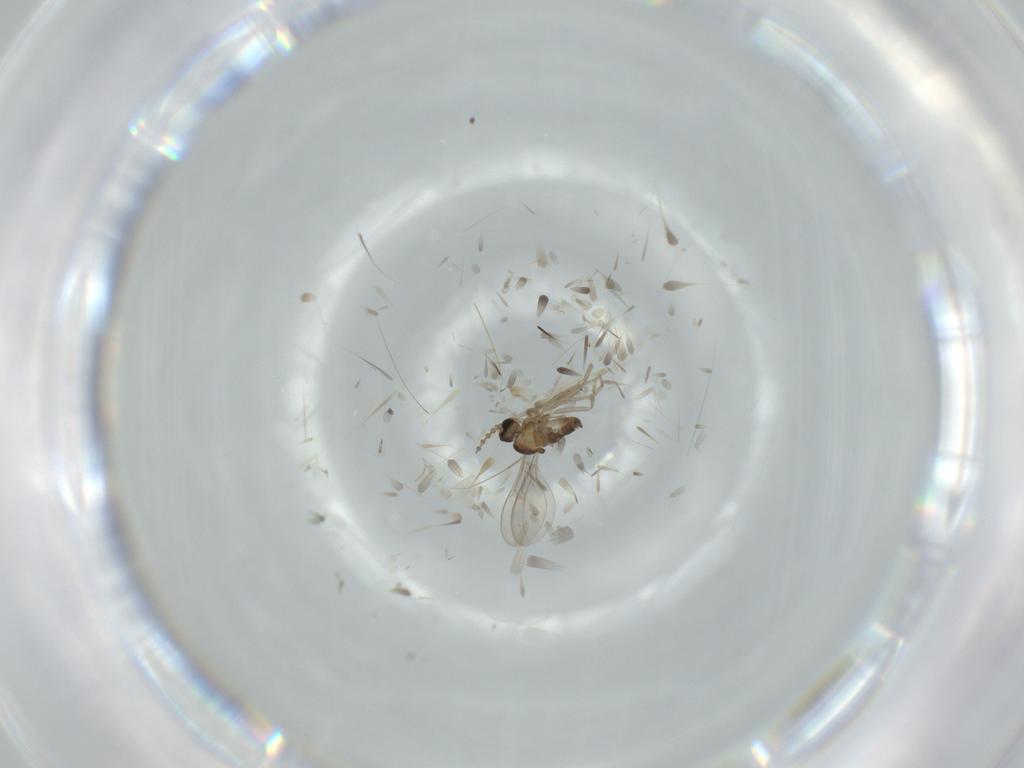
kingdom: Animalia
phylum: Arthropoda
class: Insecta
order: Diptera
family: Cecidomyiidae
